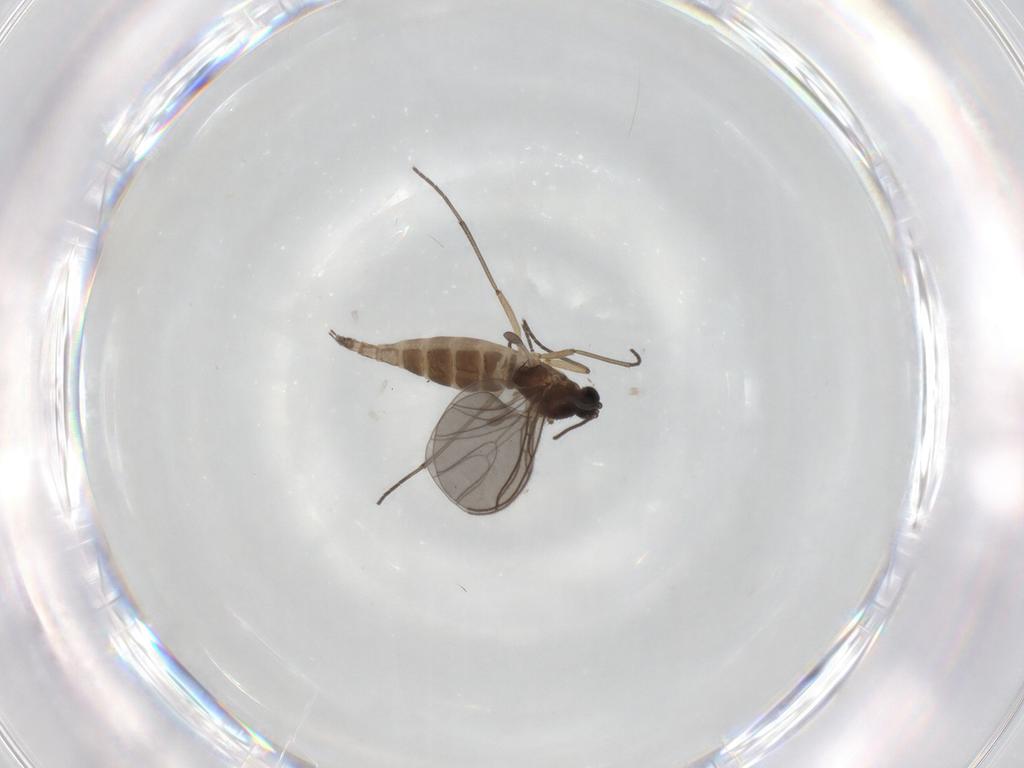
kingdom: Animalia
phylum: Arthropoda
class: Insecta
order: Diptera
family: Sciaridae
